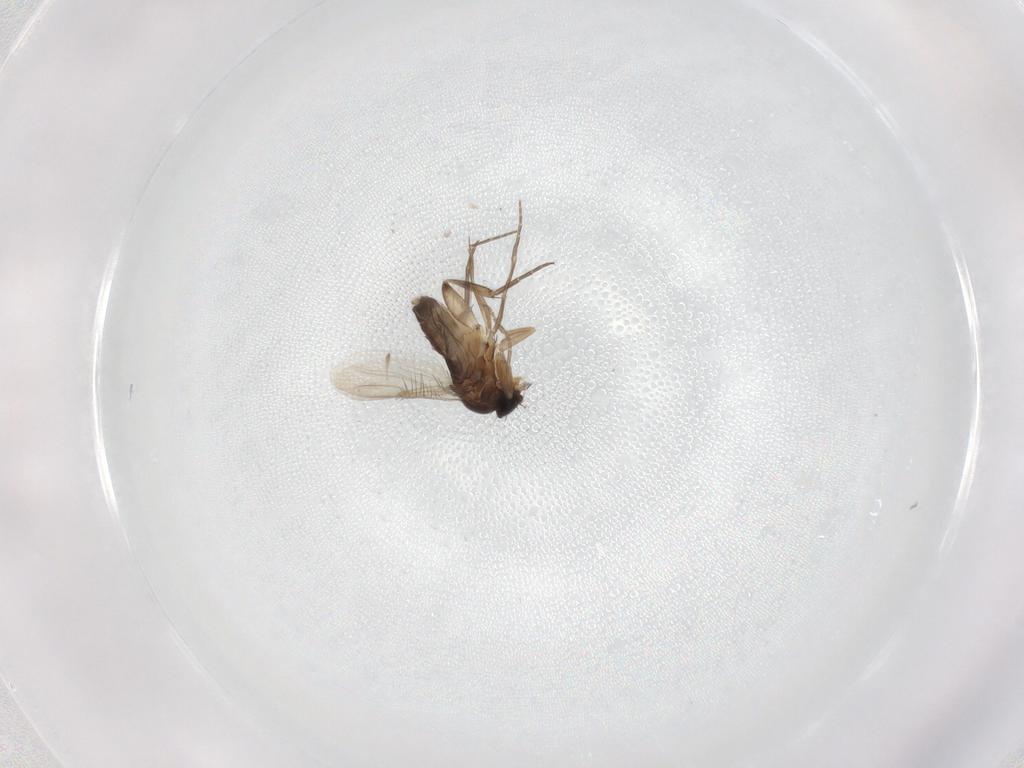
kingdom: Animalia
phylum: Arthropoda
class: Insecta
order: Diptera
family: Phoridae
